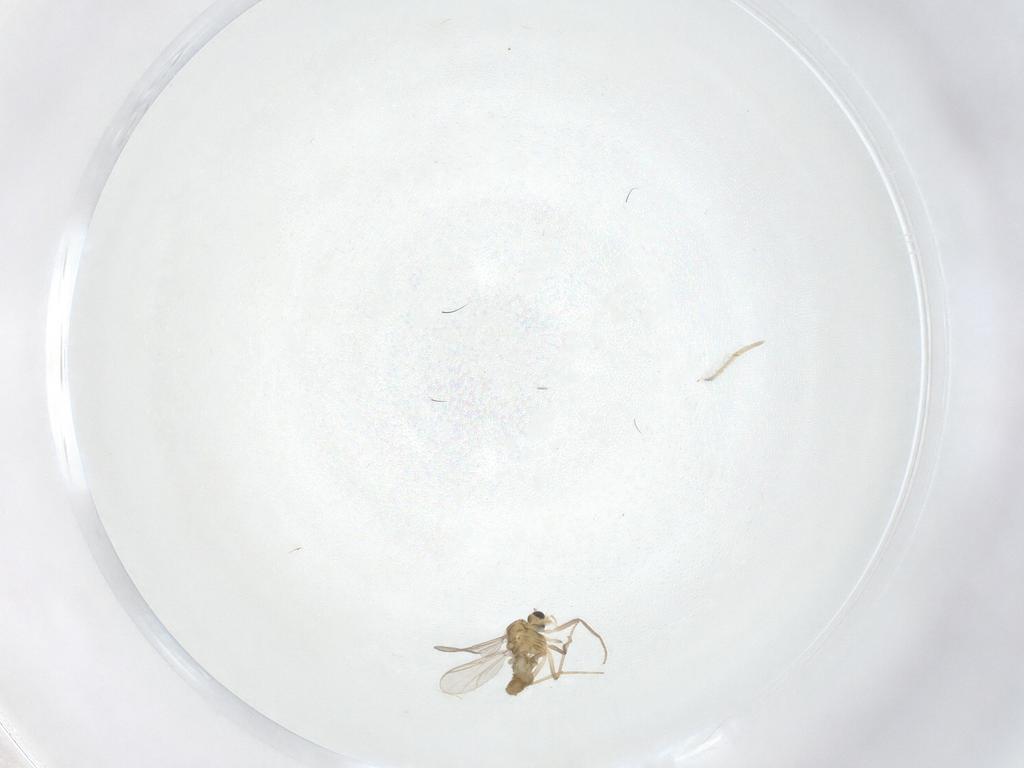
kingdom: Animalia
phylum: Arthropoda
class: Insecta
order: Diptera
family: Chironomidae
